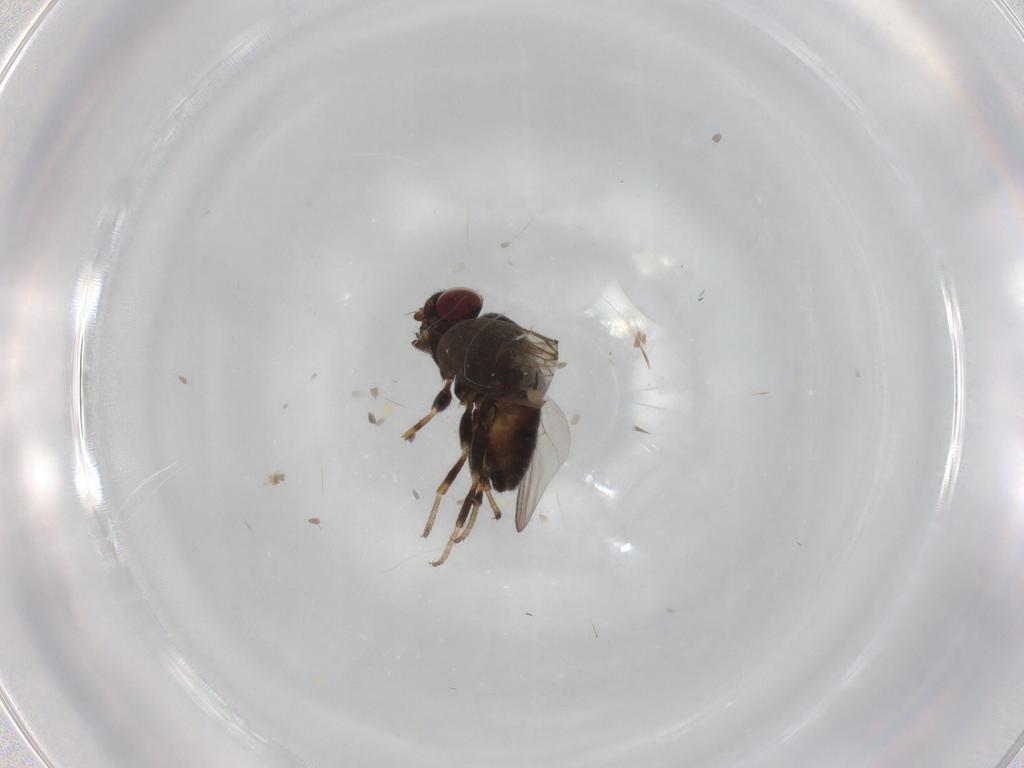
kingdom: Animalia
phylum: Arthropoda
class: Insecta
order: Diptera
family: Chloropidae
